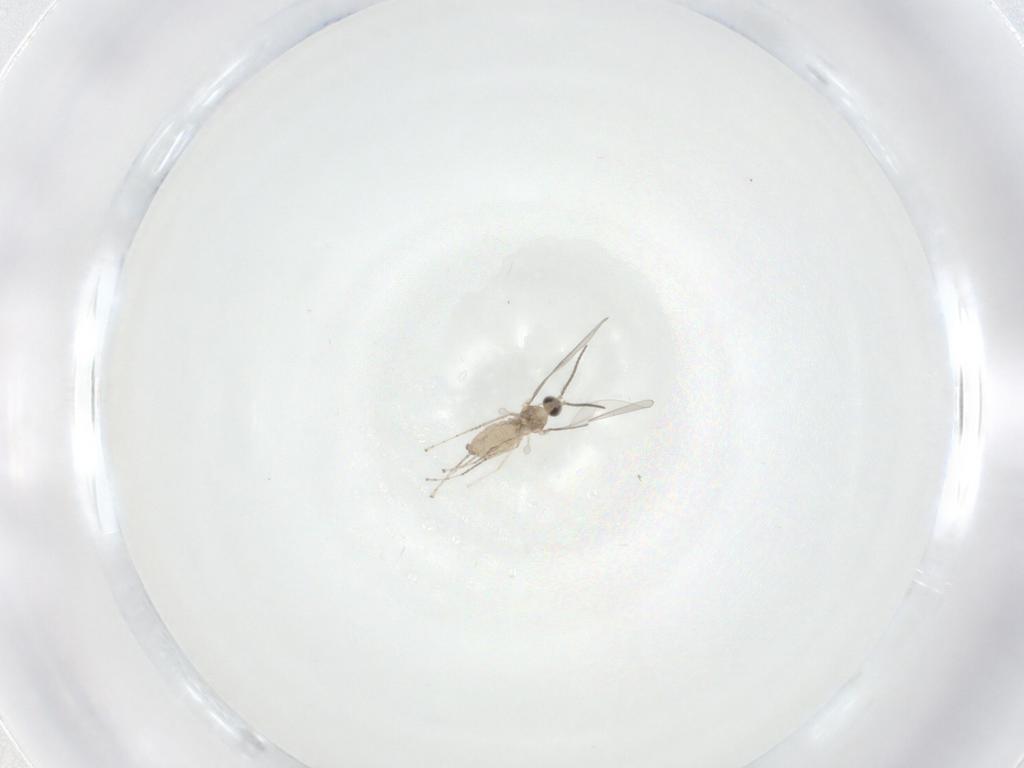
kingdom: Animalia
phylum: Arthropoda
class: Insecta
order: Diptera
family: Cecidomyiidae
